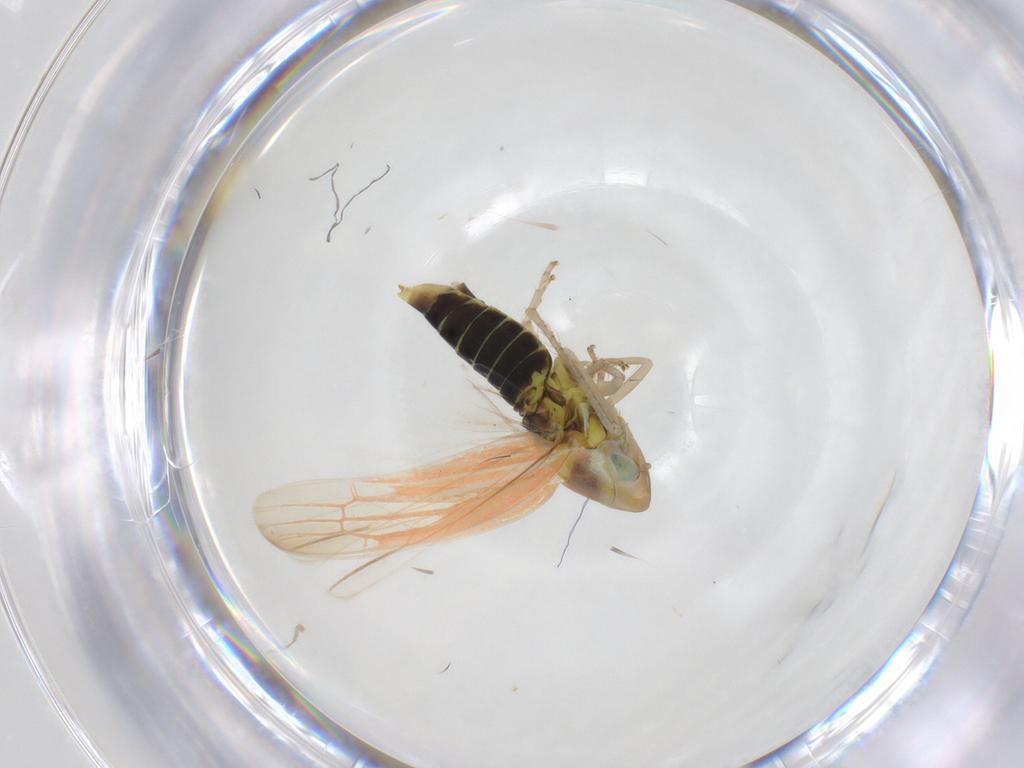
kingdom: Animalia
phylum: Arthropoda
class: Insecta
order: Hemiptera
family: Cicadellidae
